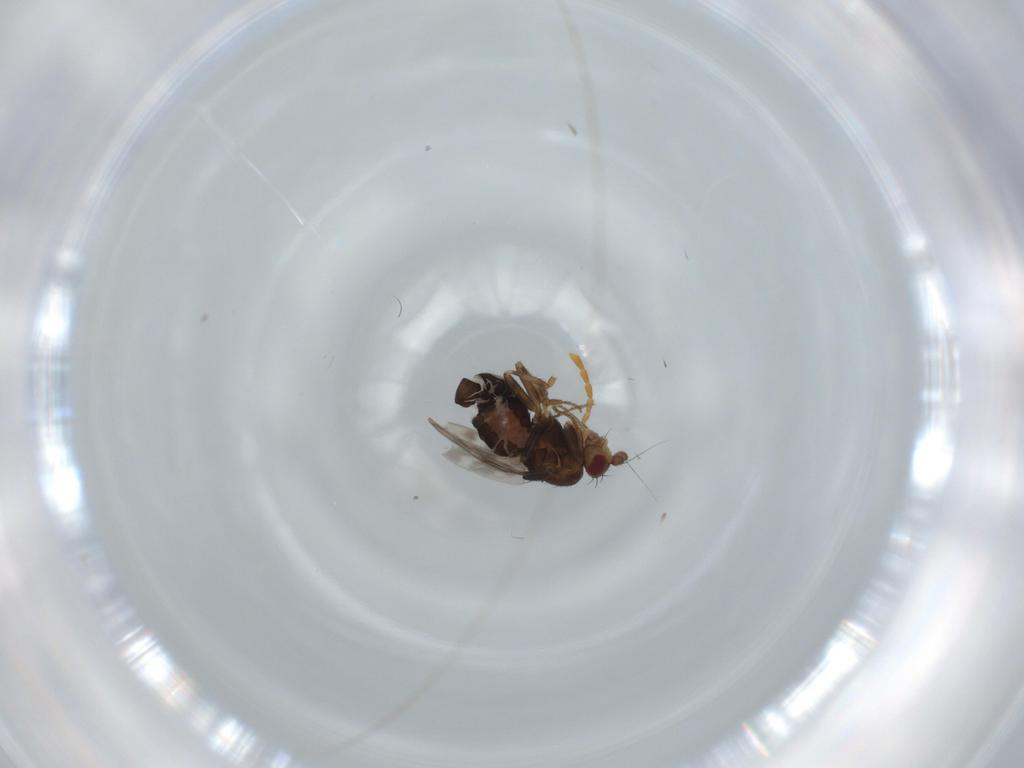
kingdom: Animalia
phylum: Arthropoda
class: Insecta
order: Diptera
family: Sphaeroceridae
